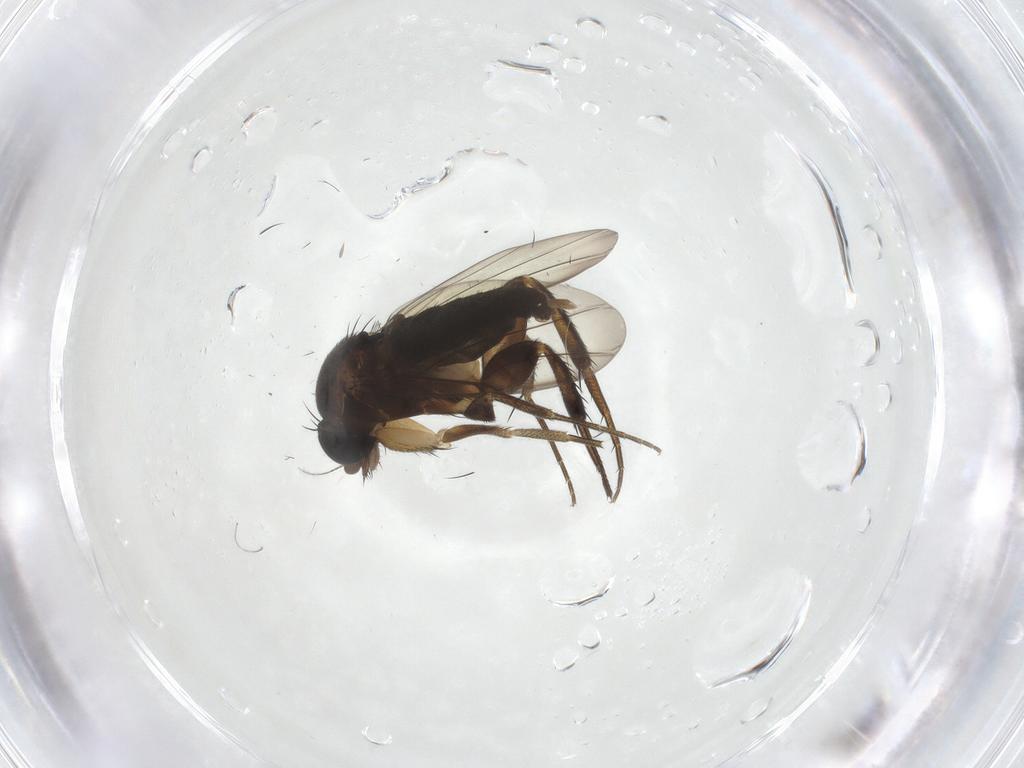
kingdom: Animalia
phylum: Arthropoda
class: Insecta
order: Diptera
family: Phoridae
